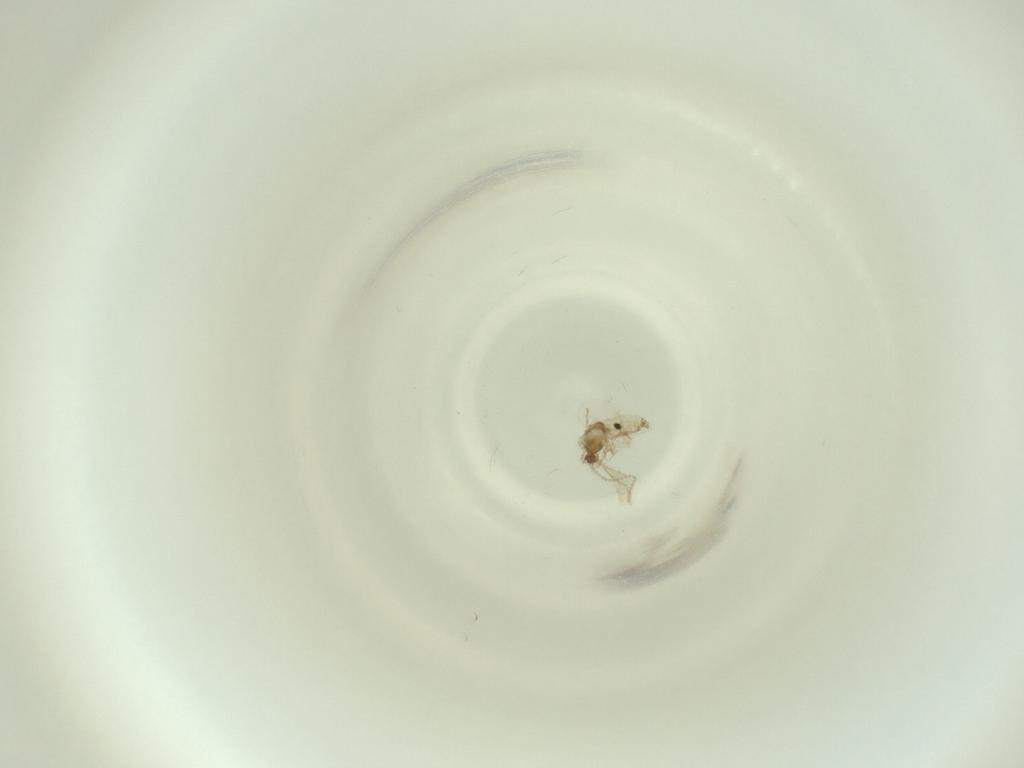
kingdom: Animalia
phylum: Arthropoda
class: Insecta
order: Diptera
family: Cecidomyiidae
